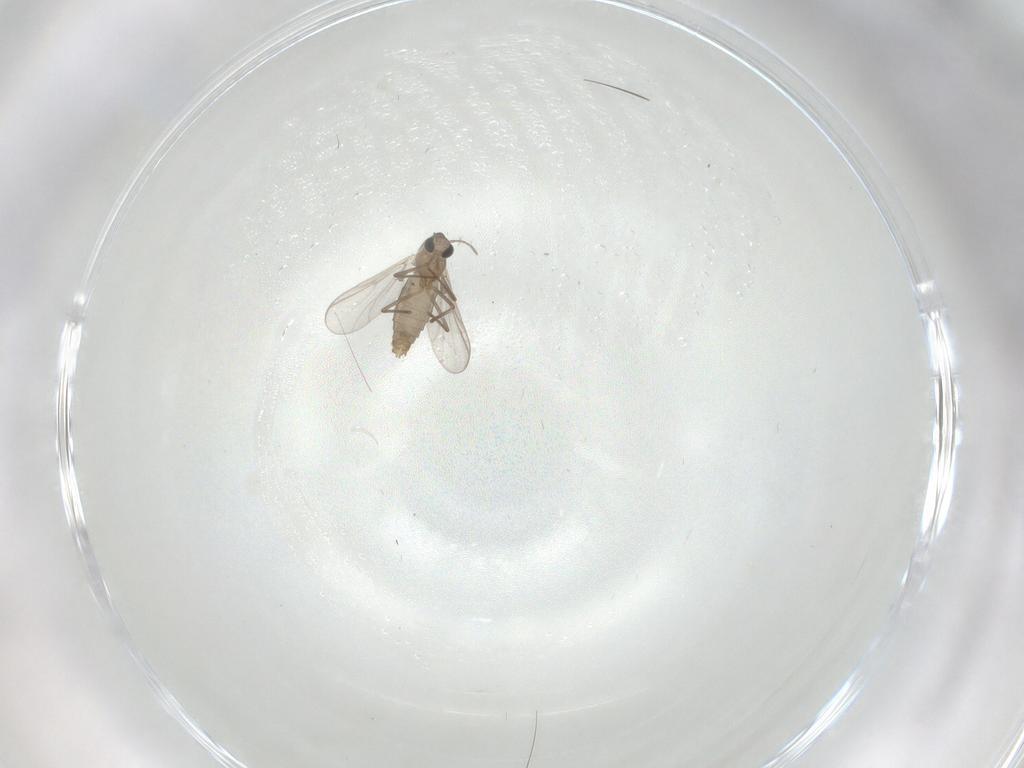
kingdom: Animalia
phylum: Arthropoda
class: Insecta
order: Diptera
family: Chironomidae
